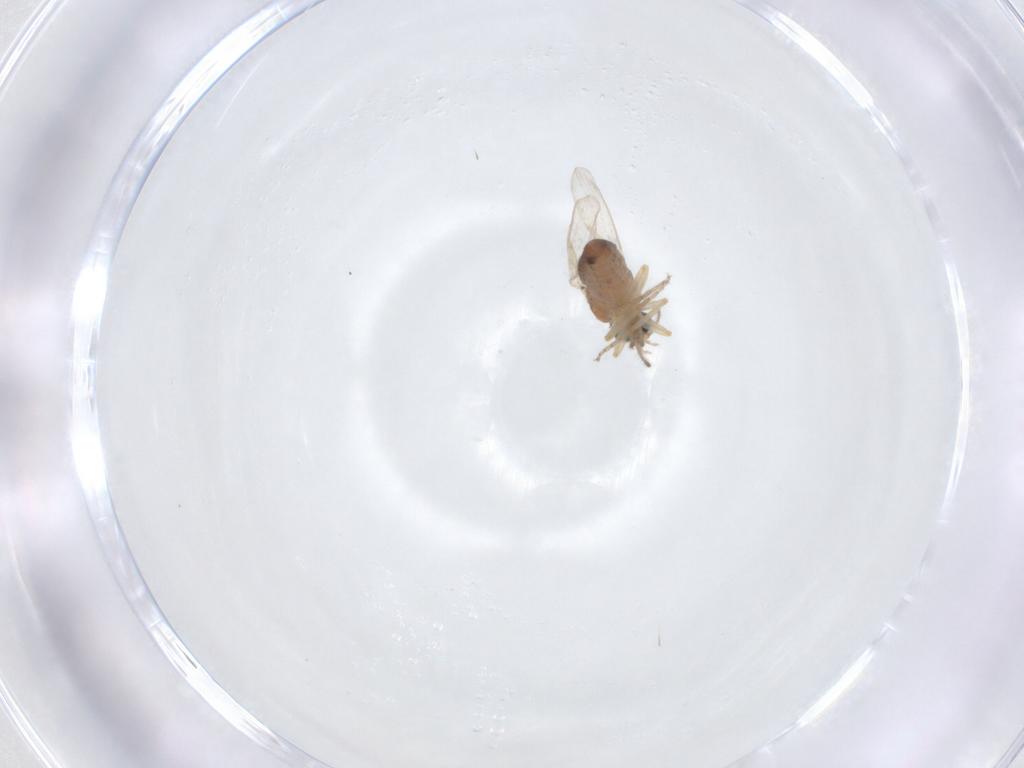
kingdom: Animalia
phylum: Arthropoda
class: Insecta
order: Diptera
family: Ceratopogonidae
